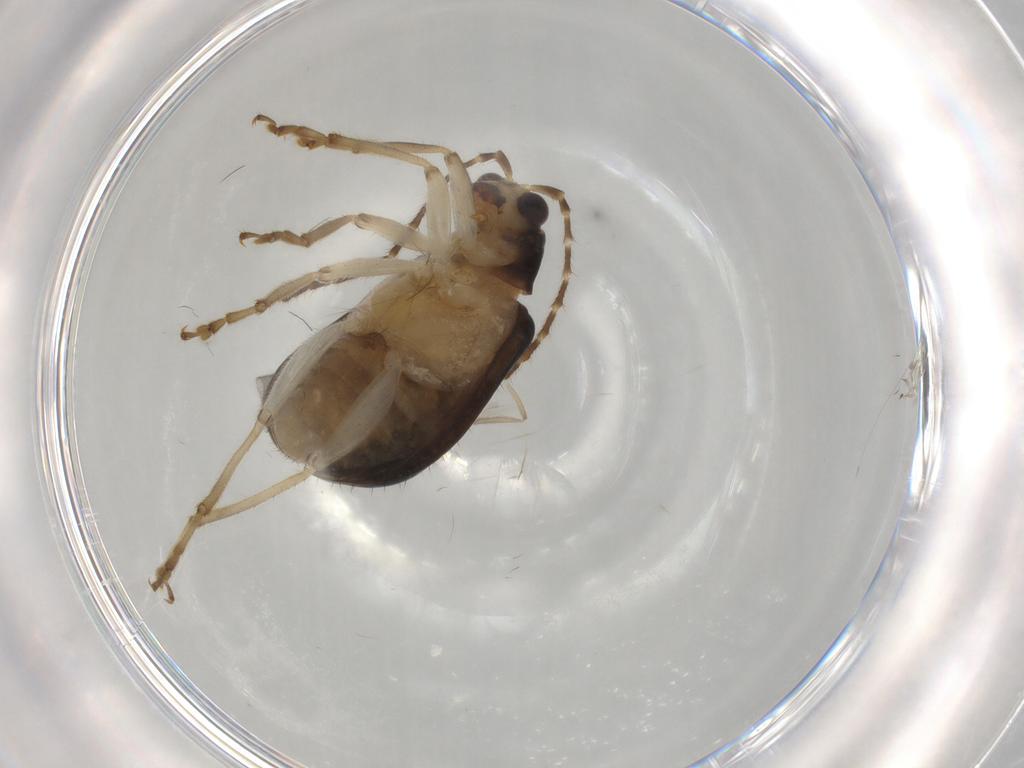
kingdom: Animalia
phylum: Arthropoda
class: Insecta
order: Coleoptera
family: Chrysomelidae
